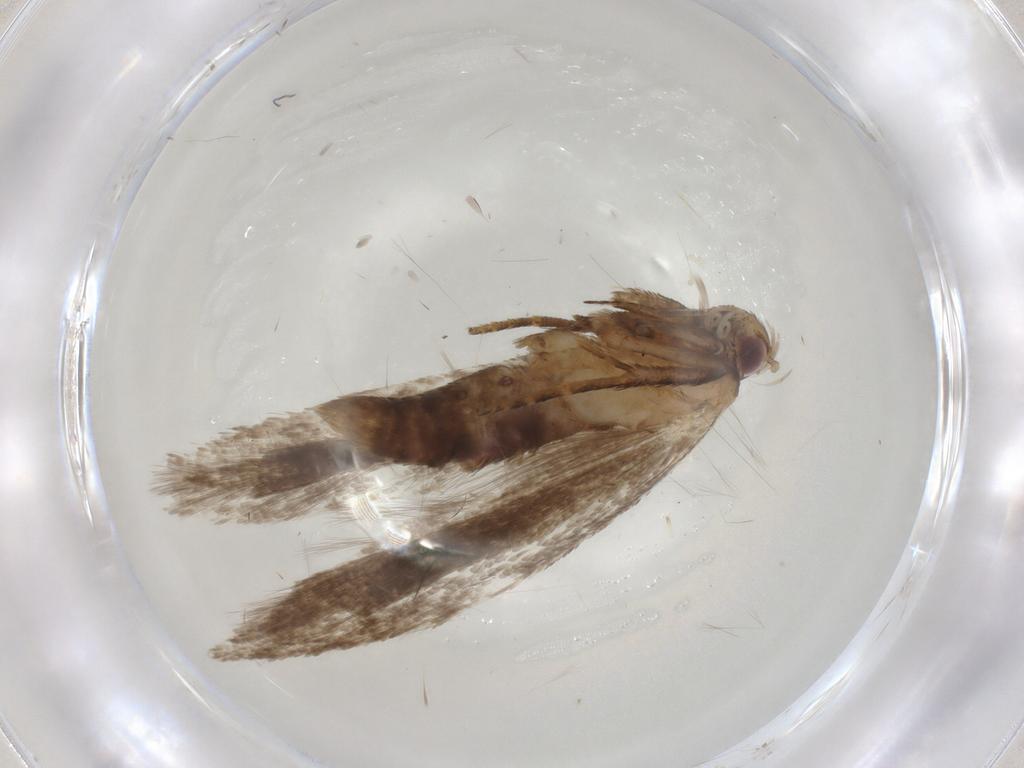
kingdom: Animalia
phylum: Arthropoda
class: Insecta
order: Lepidoptera
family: Gelechiidae
